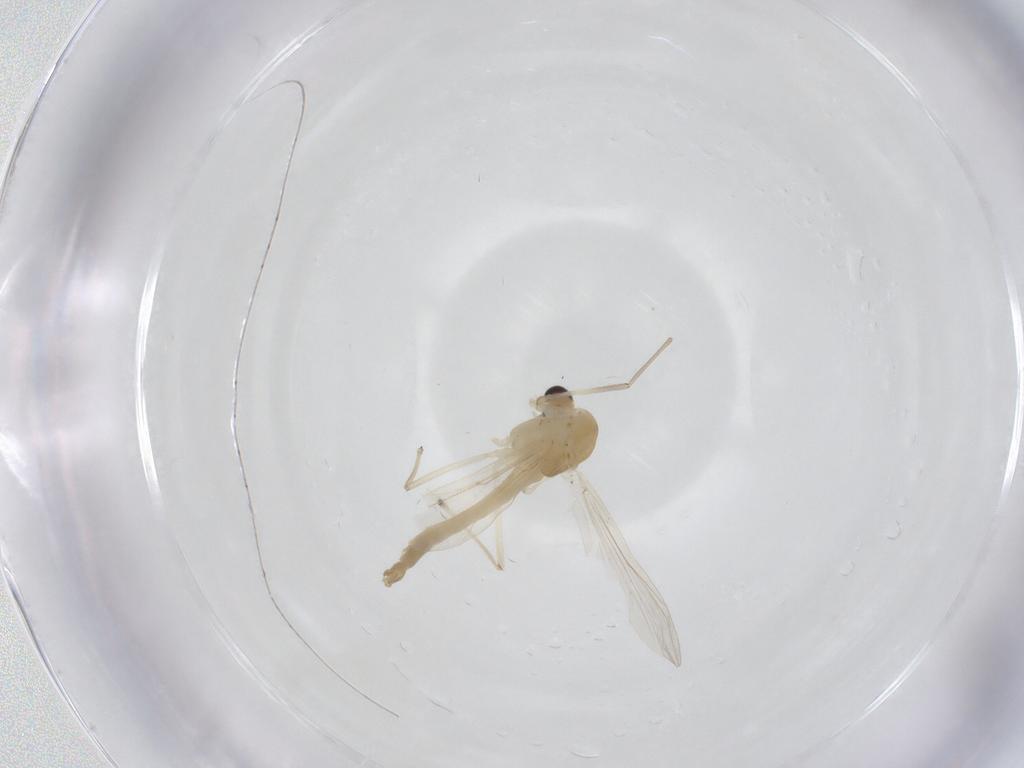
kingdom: Animalia
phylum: Arthropoda
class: Insecta
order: Diptera
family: Chironomidae
